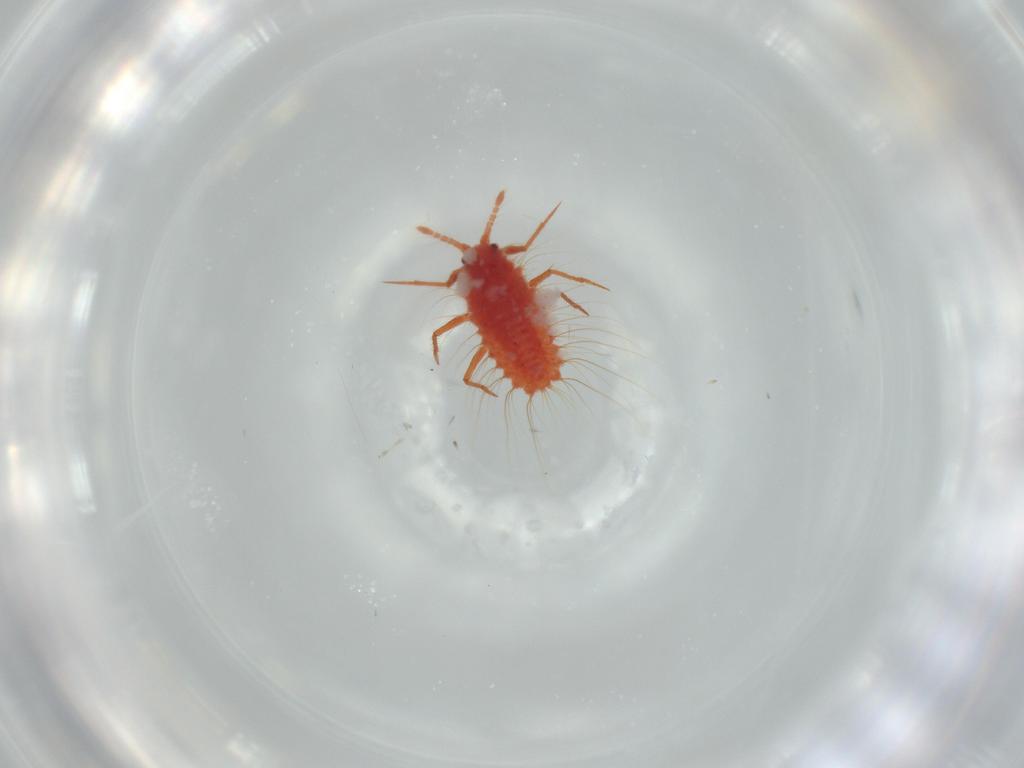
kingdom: Animalia
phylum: Arthropoda
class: Insecta
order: Hemiptera
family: Monophlebidae
